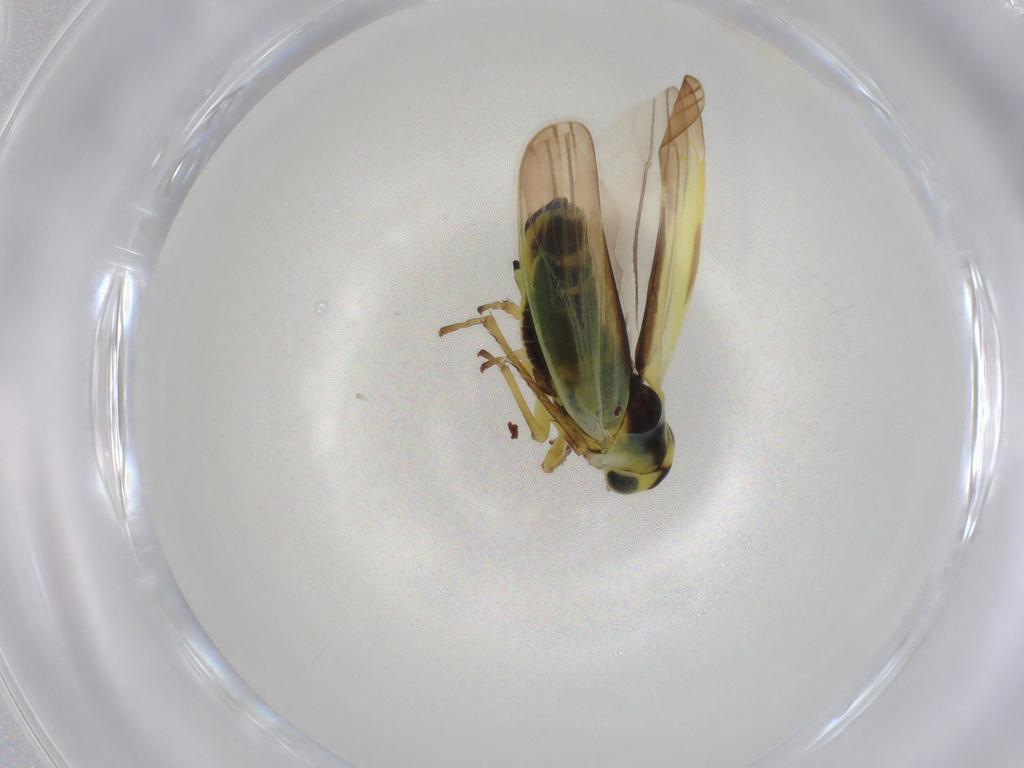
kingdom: Animalia
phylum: Arthropoda
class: Insecta
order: Hemiptera
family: Cicadellidae
